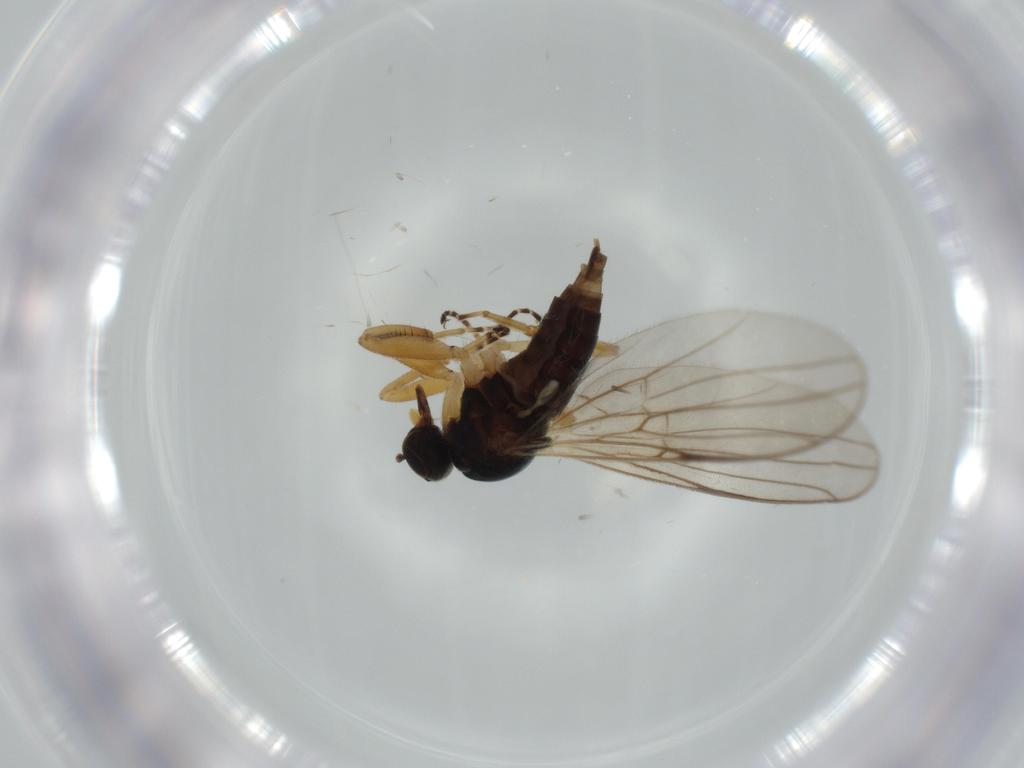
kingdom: Animalia
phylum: Arthropoda
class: Insecta
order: Diptera
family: Hybotidae
